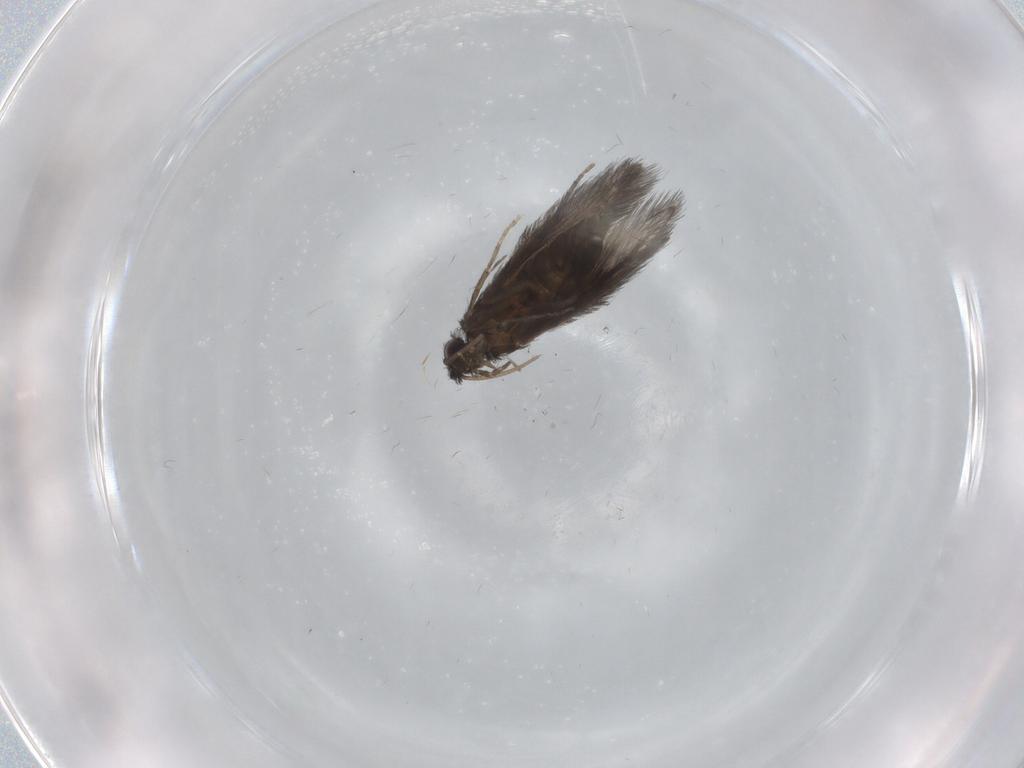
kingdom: Animalia
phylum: Arthropoda
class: Insecta
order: Trichoptera
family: Hydroptilidae
